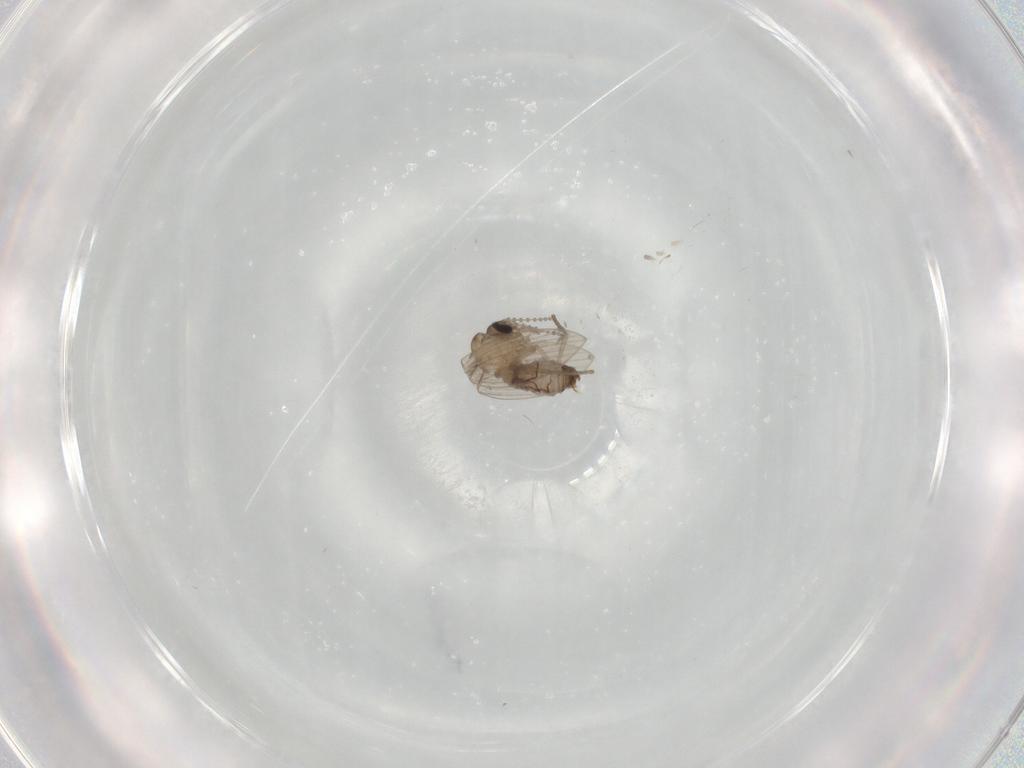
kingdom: Animalia
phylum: Arthropoda
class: Insecta
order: Diptera
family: Psychodidae
